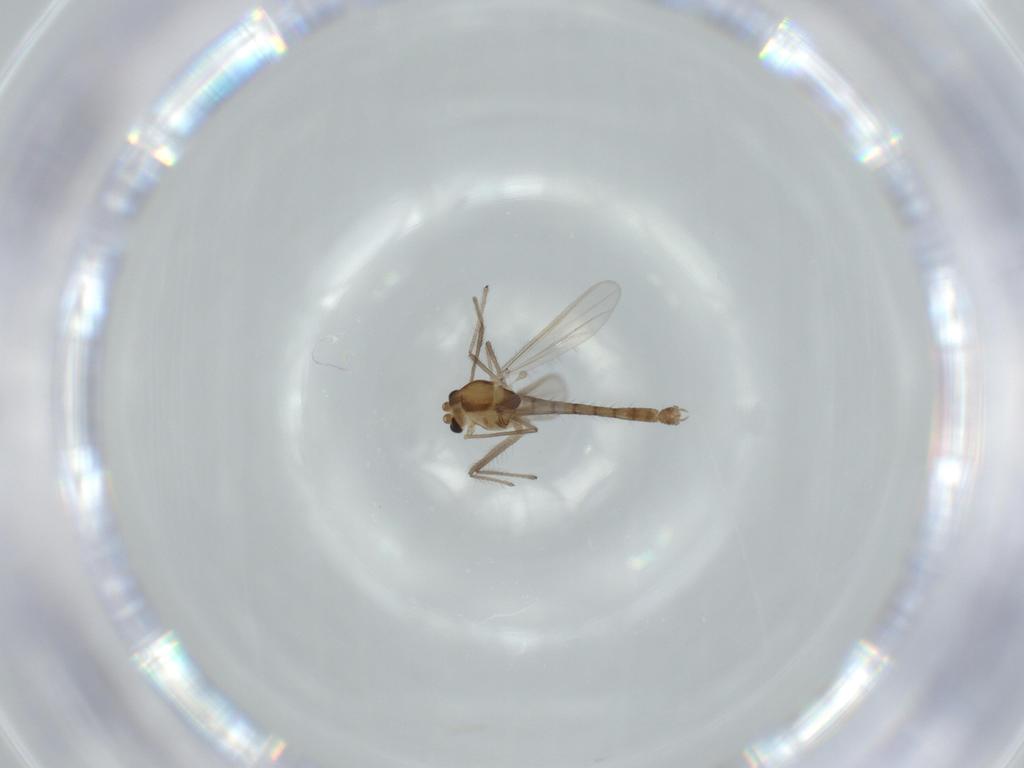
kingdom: Animalia
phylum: Arthropoda
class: Insecta
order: Diptera
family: Chironomidae
